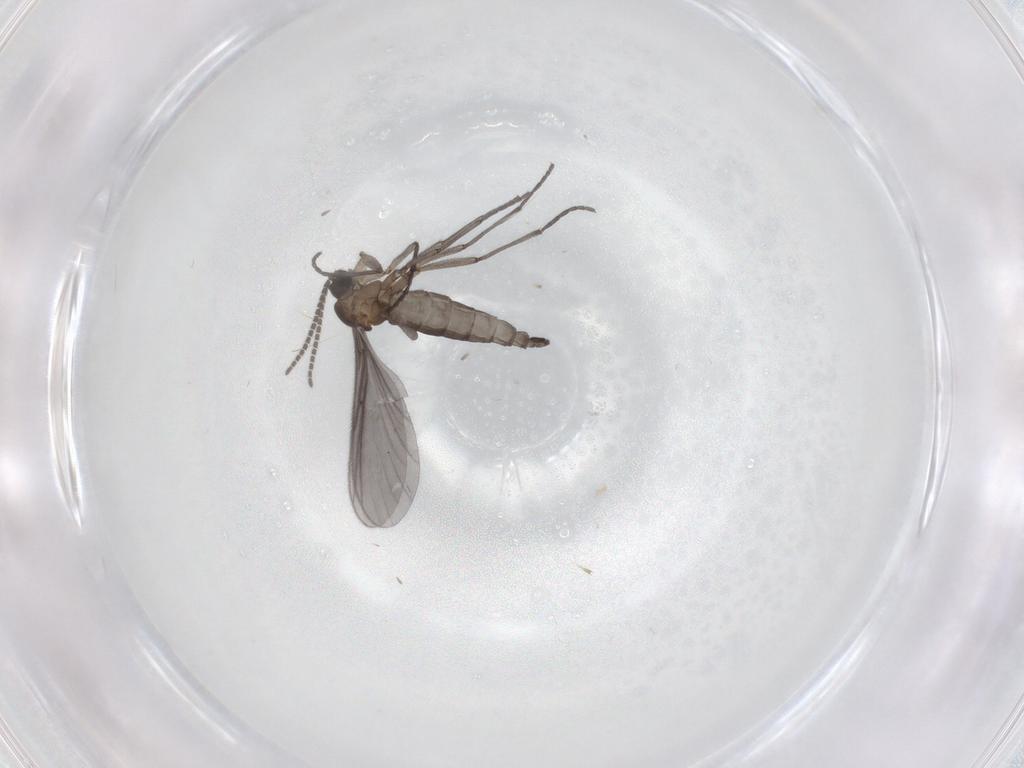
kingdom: Animalia
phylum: Arthropoda
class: Insecta
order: Diptera
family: Sciaridae
